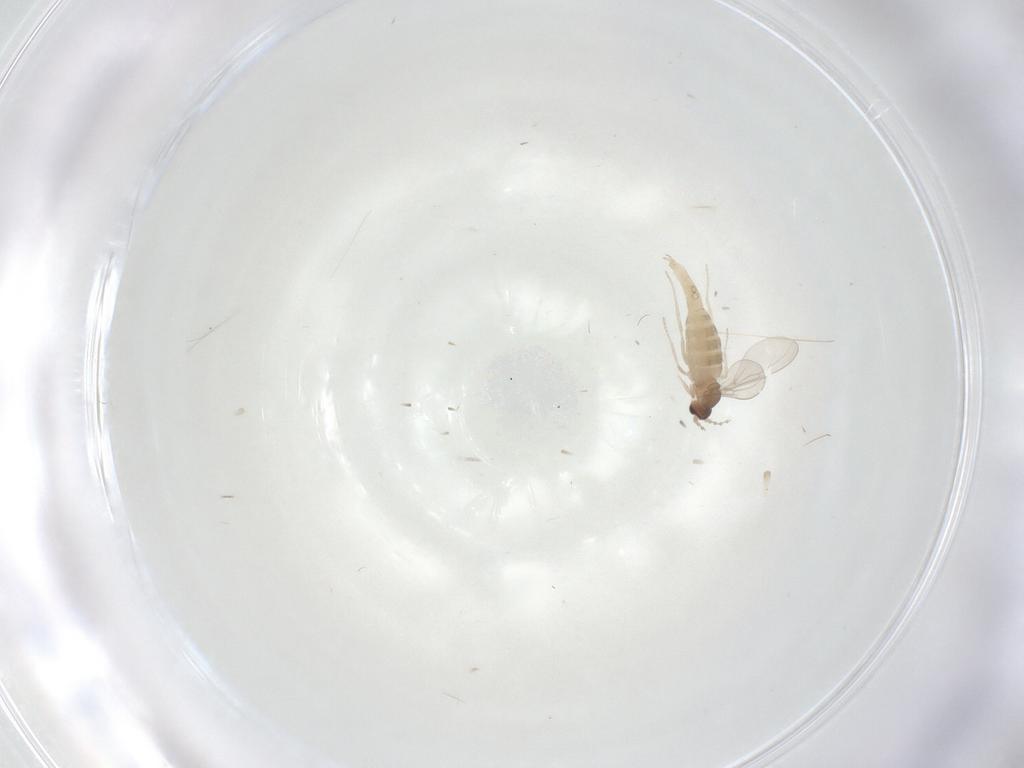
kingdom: Animalia
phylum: Arthropoda
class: Insecta
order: Diptera
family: Cecidomyiidae
